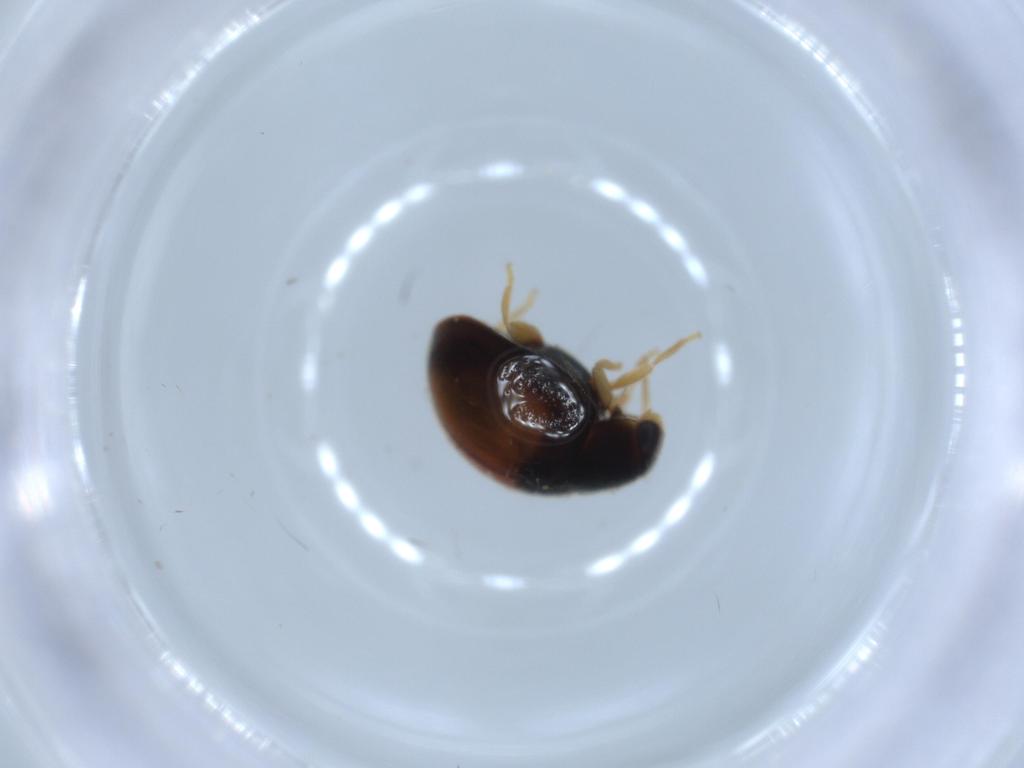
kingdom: Animalia
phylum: Arthropoda
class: Insecta
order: Coleoptera
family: Coccinellidae
